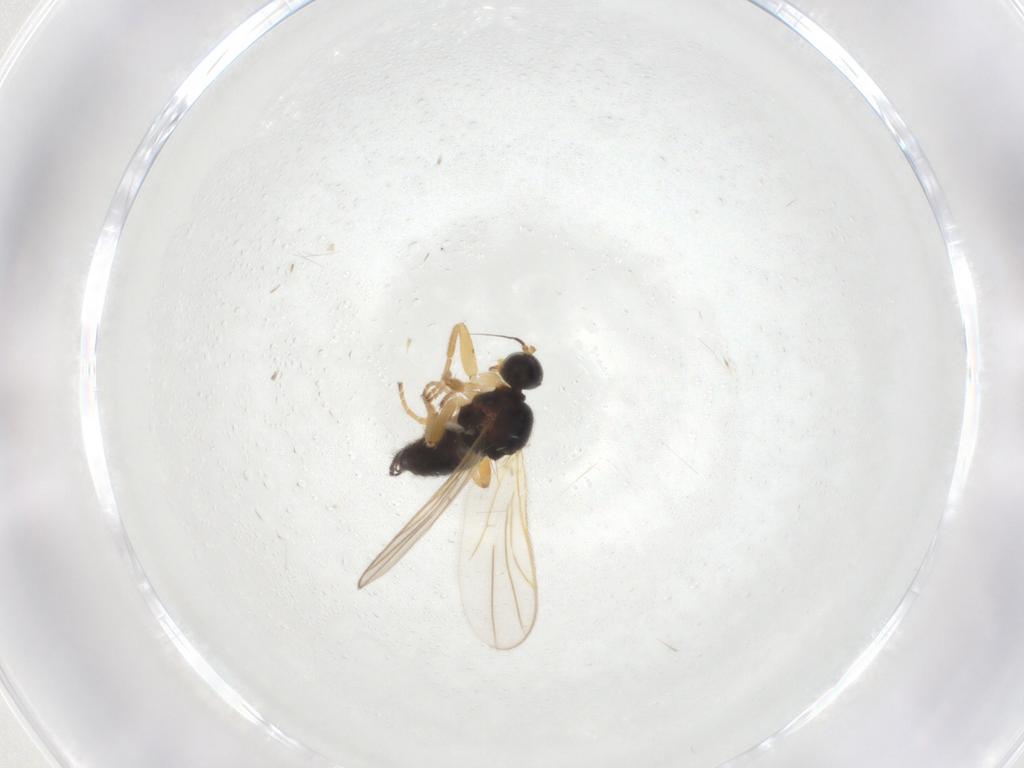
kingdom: Animalia
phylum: Arthropoda
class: Insecta
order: Diptera
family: Hybotidae
